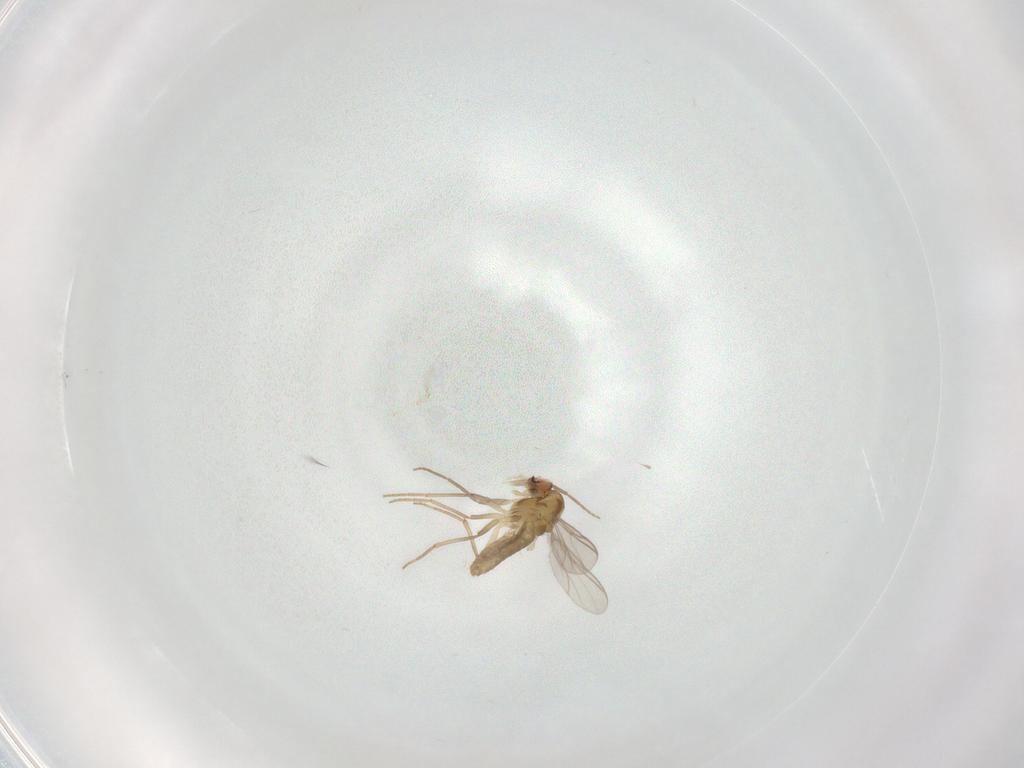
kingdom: Animalia
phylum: Arthropoda
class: Insecta
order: Diptera
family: Chironomidae
